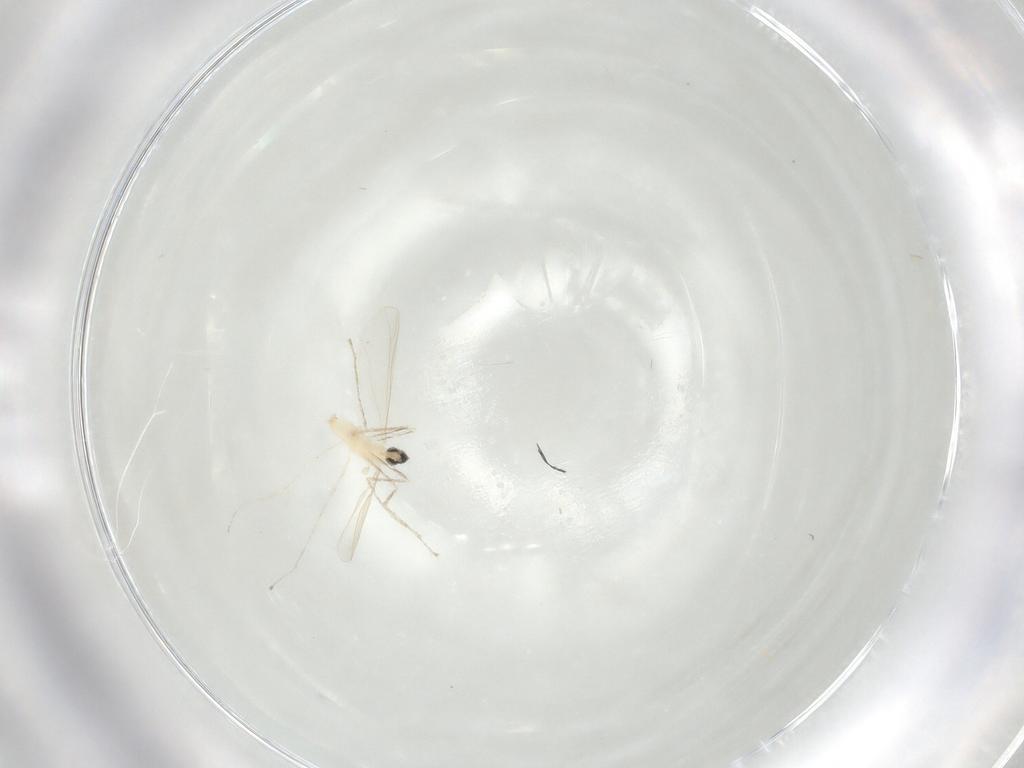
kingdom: Animalia
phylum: Arthropoda
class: Insecta
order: Diptera
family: Cecidomyiidae
